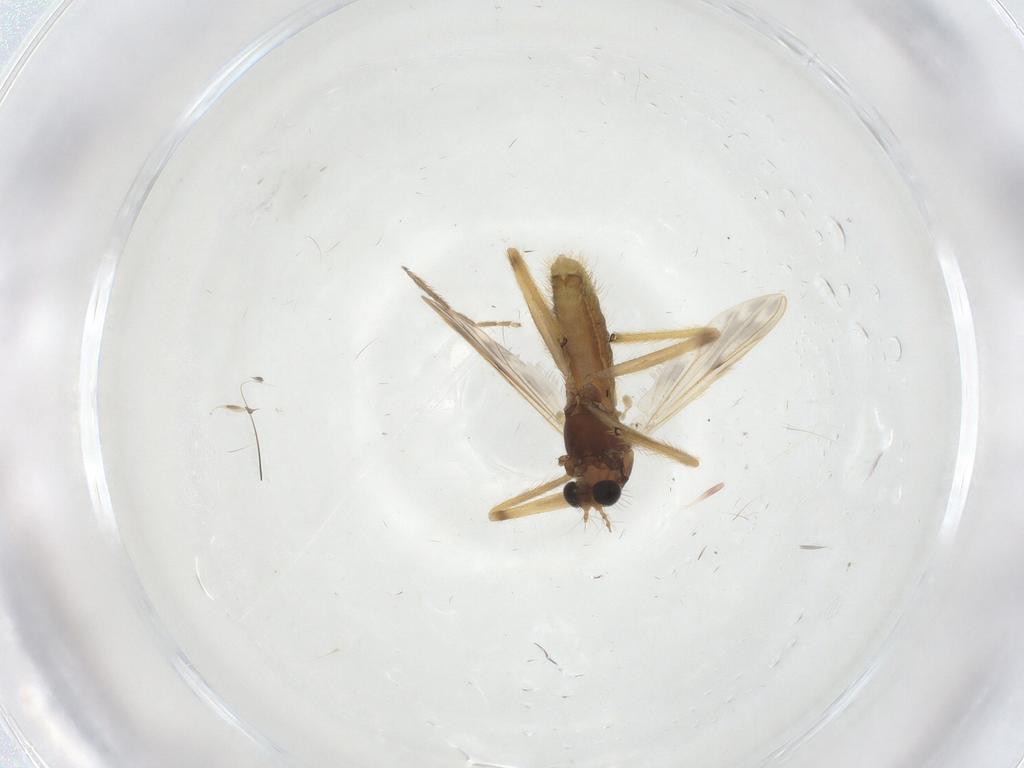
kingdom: Animalia
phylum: Arthropoda
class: Insecta
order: Diptera
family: Chironomidae
